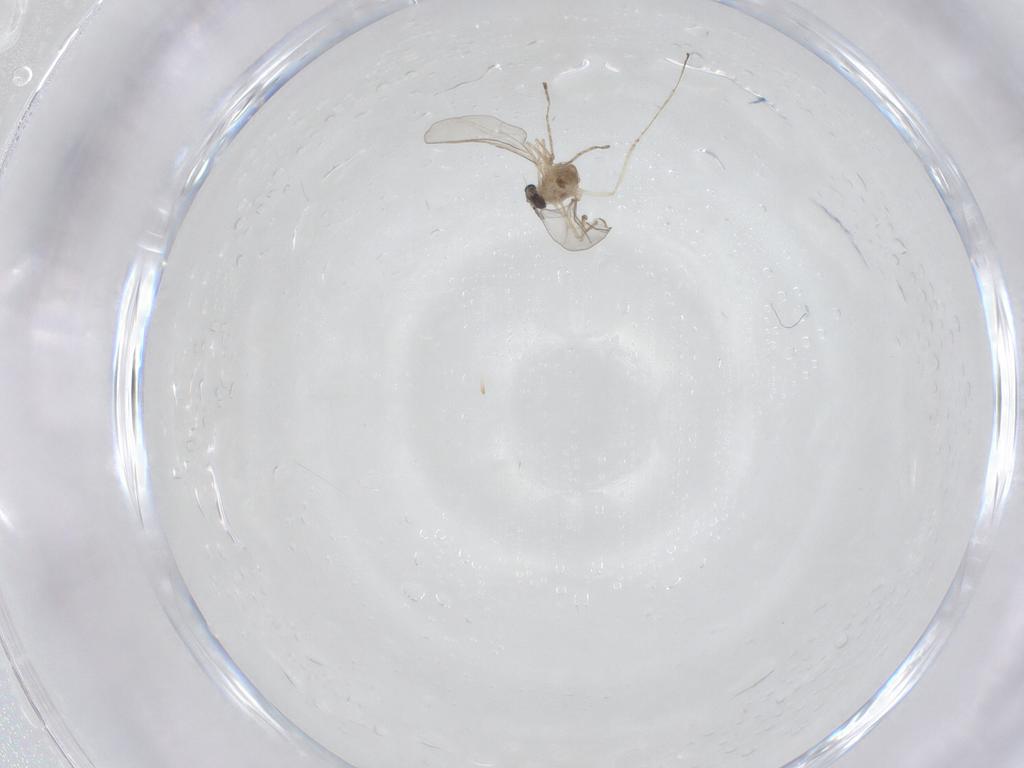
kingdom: Animalia
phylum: Arthropoda
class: Insecta
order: Diptera
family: Cecidomyiidae
